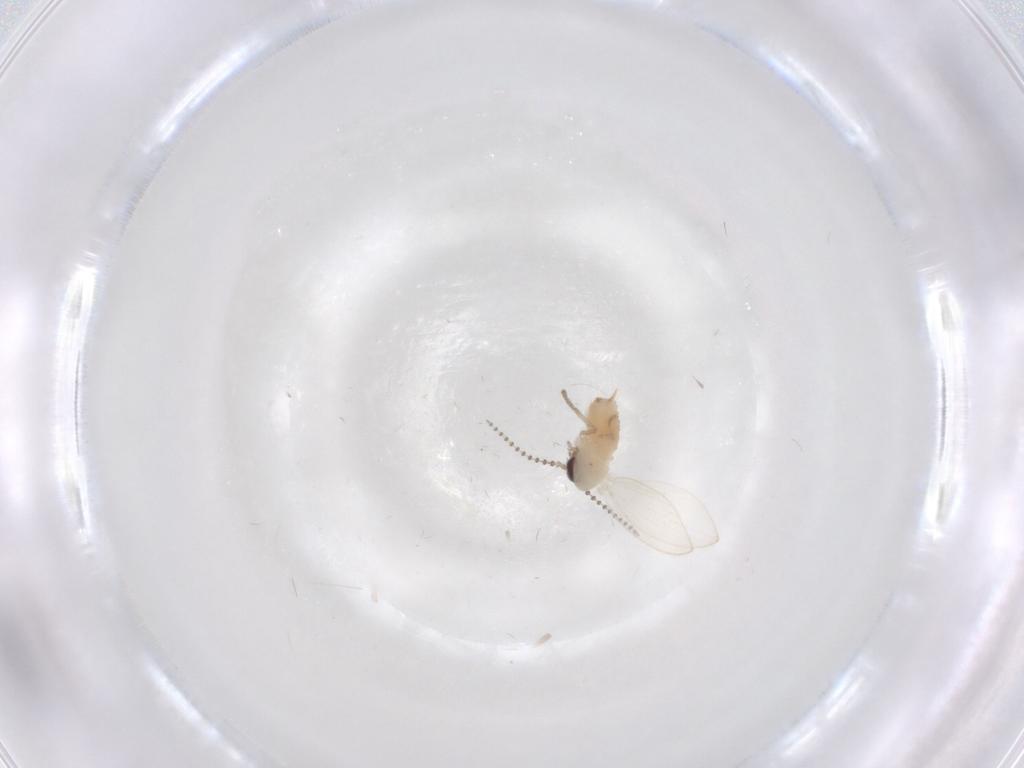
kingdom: Animalia
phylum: Arthropoda
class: Insecta
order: Diptera
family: Psychodidae
